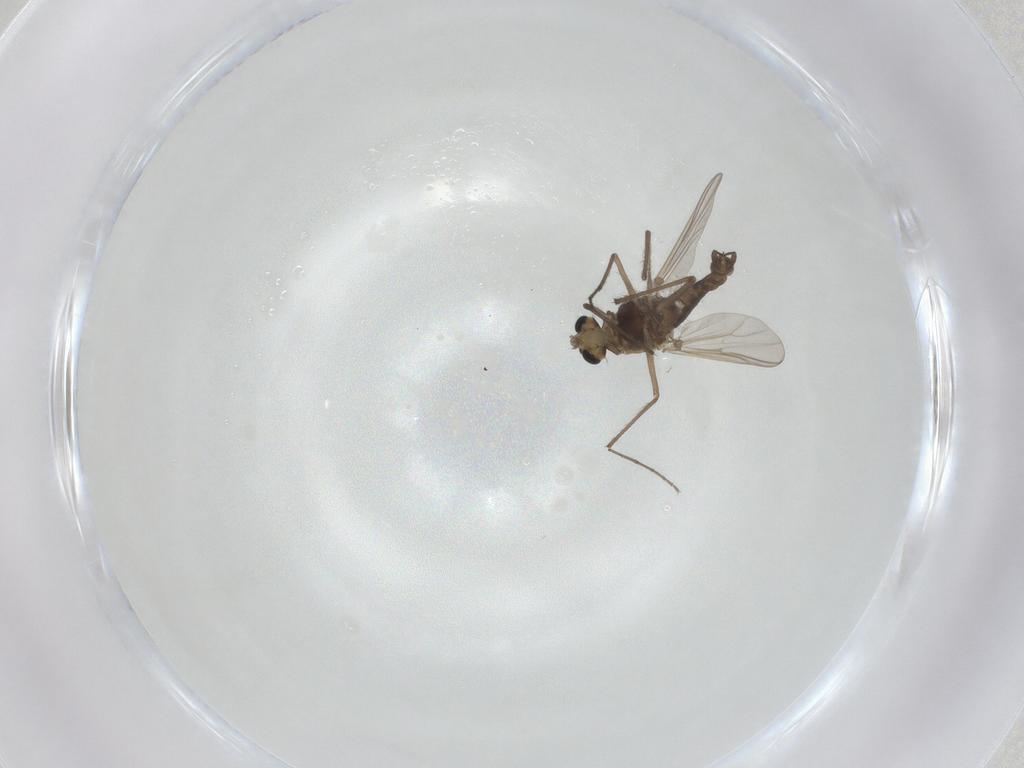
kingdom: Animalia
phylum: Arthropoda
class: Insecta
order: Diptera
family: Chironomidae
